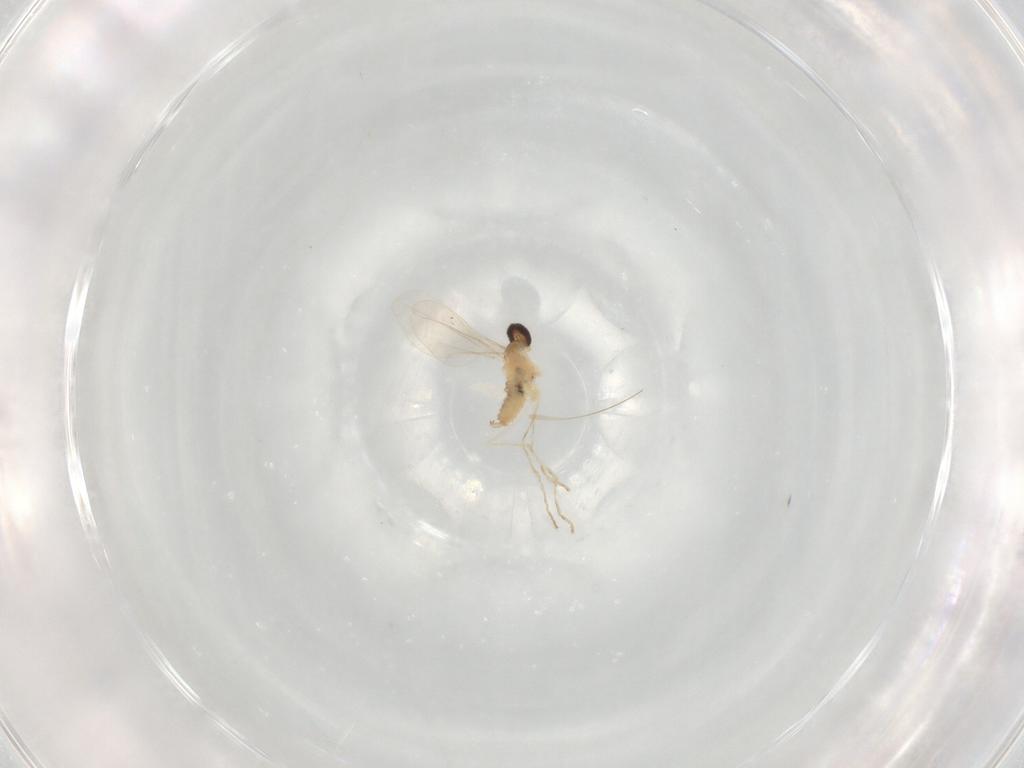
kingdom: Animalia
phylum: Arthropoda
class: Insecta
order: Diptera
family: Cecidomyiidae
